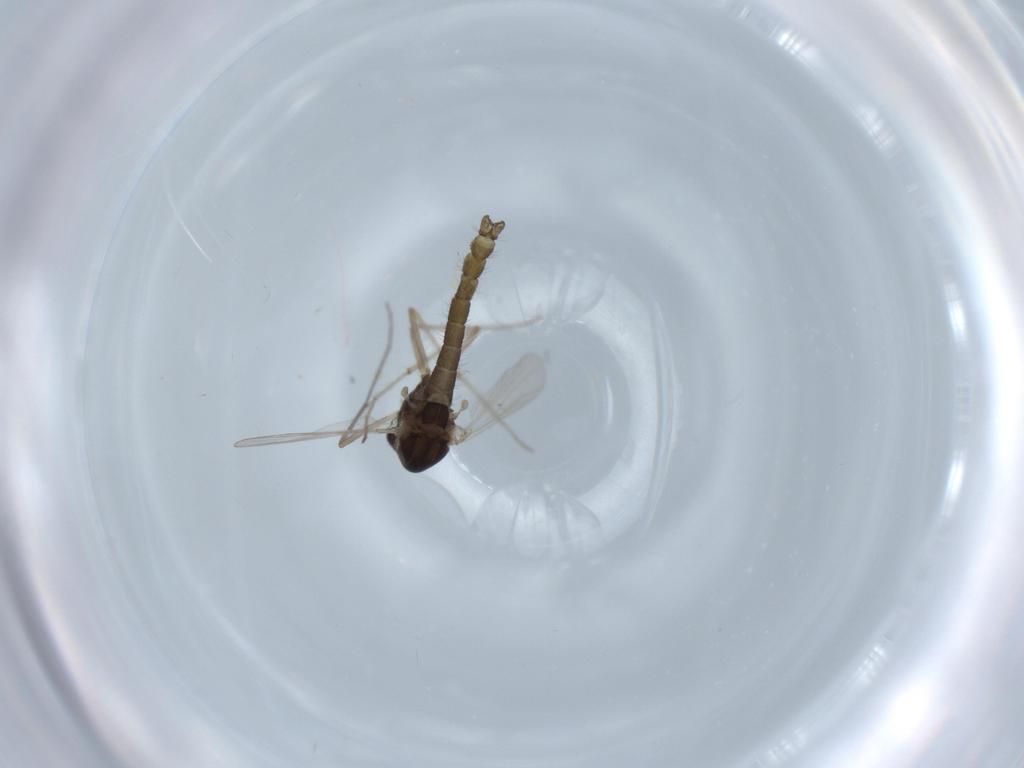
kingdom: Animalia
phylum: Arthropoda
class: Insecta
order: Diptera
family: Chironomidae
